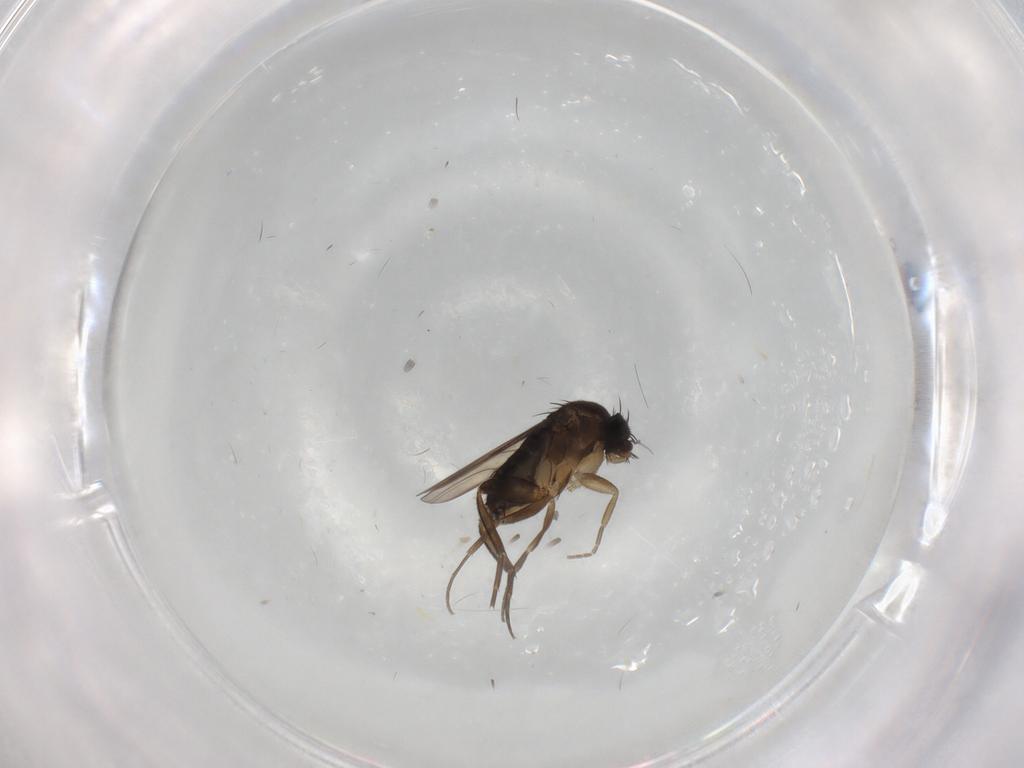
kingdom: Animalia
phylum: Arthropoda
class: Insecta
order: Diptera
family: Phoridae
